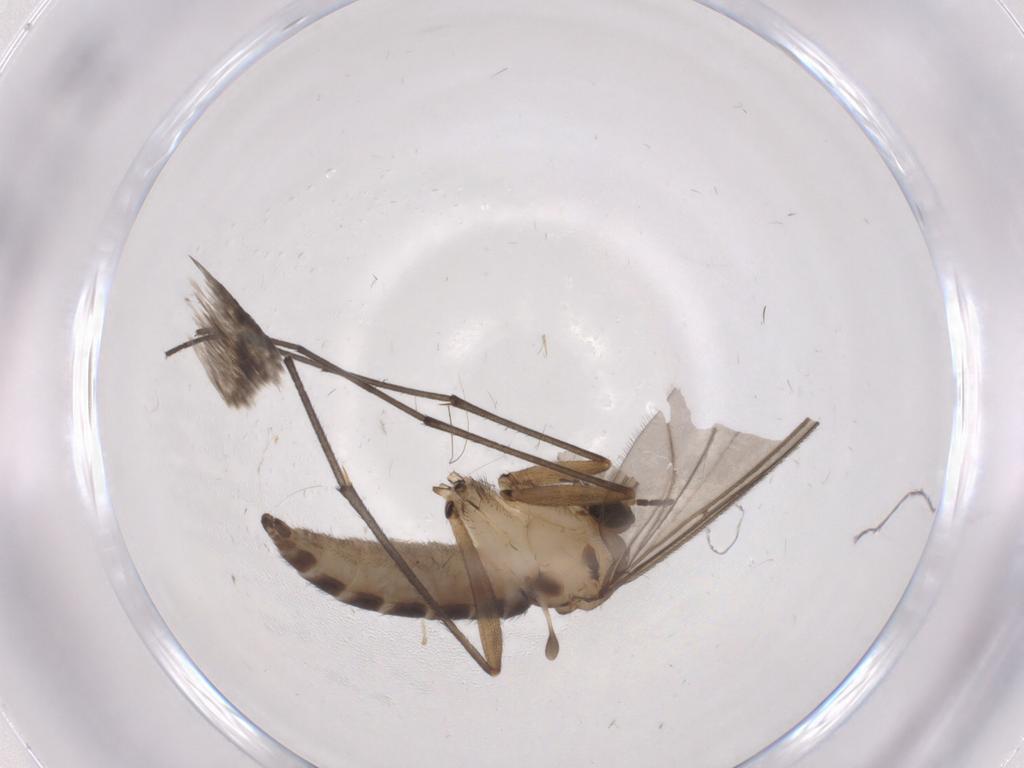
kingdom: Animalia
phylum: Arthropoda
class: Insecta
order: Diptera
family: Sciaridae
